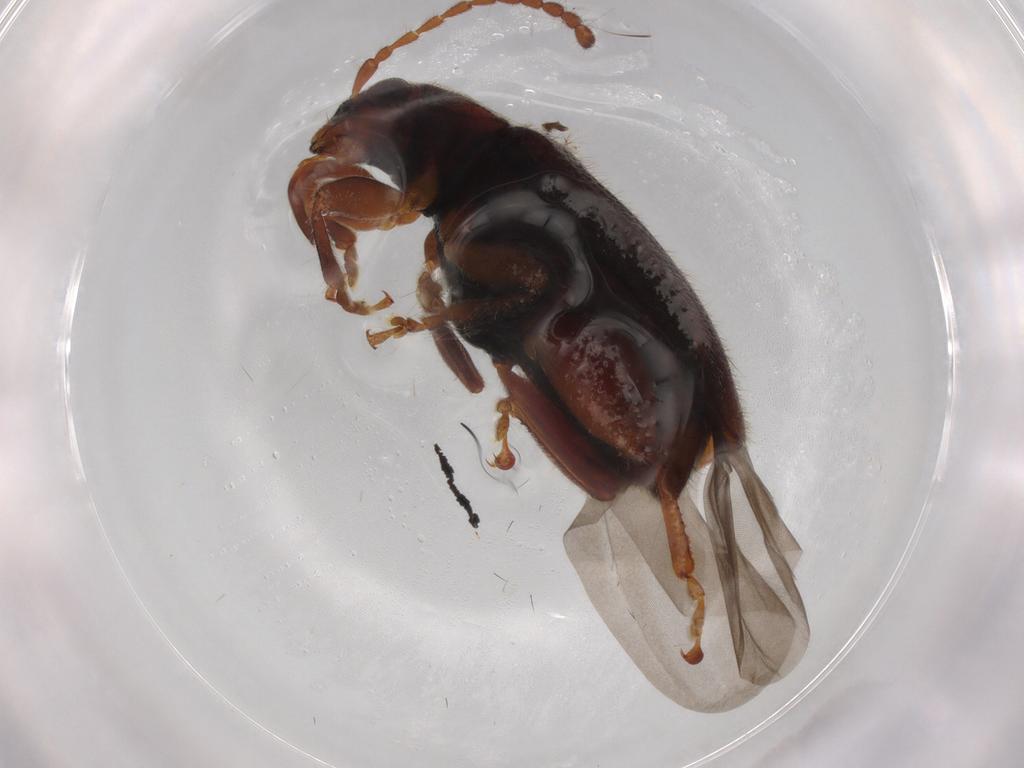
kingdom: Animalia
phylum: Arthropoda
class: Insecta
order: Coleoptera
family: Chrysomelidae
